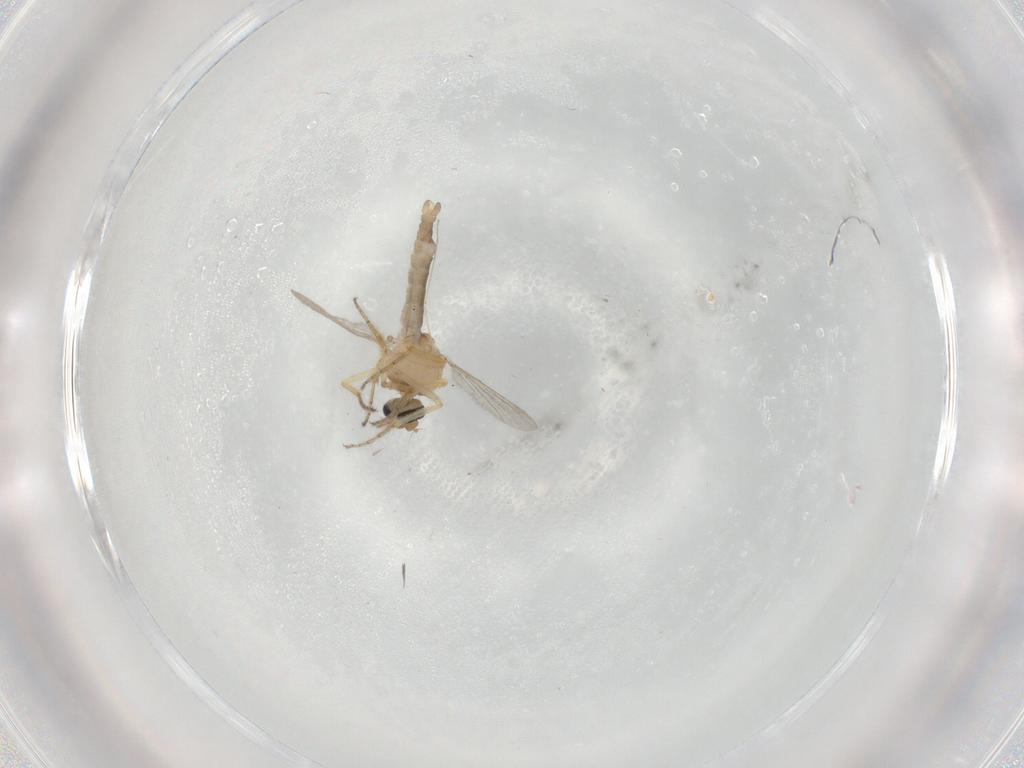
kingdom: Animalia
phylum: Arthropoda
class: Insecta
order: Diptera
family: Ceratopogonidae
